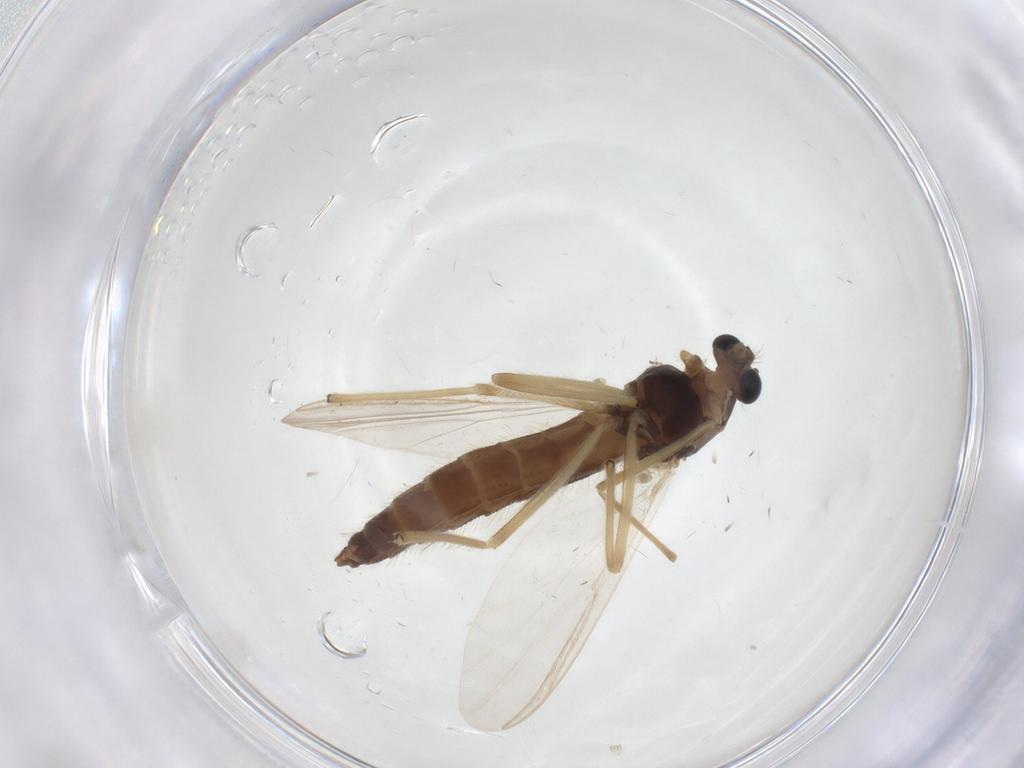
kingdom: Animalia
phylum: Arthropoda
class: Insecta
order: Diptera
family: Chironomidae
